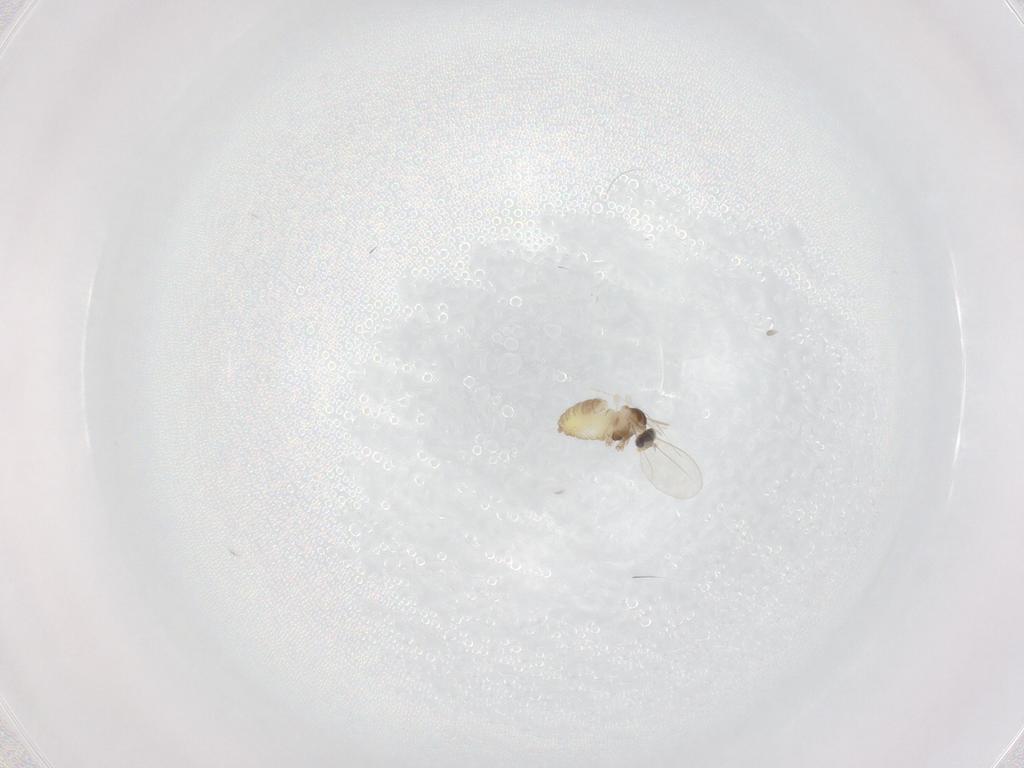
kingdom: Animalia
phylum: Arthropoda
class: Insecta
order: Diptera
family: Cecidomyiidae
